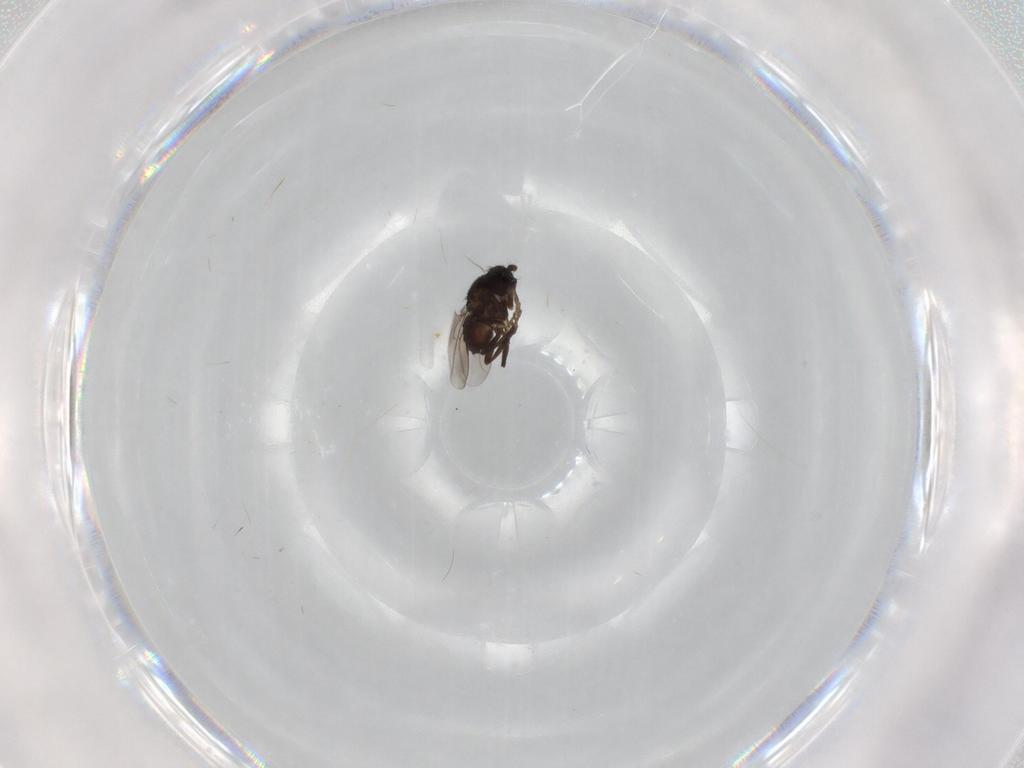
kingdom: Animalia
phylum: Arthropoda
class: Insecta
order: Diptera
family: Sphaeroceridae
